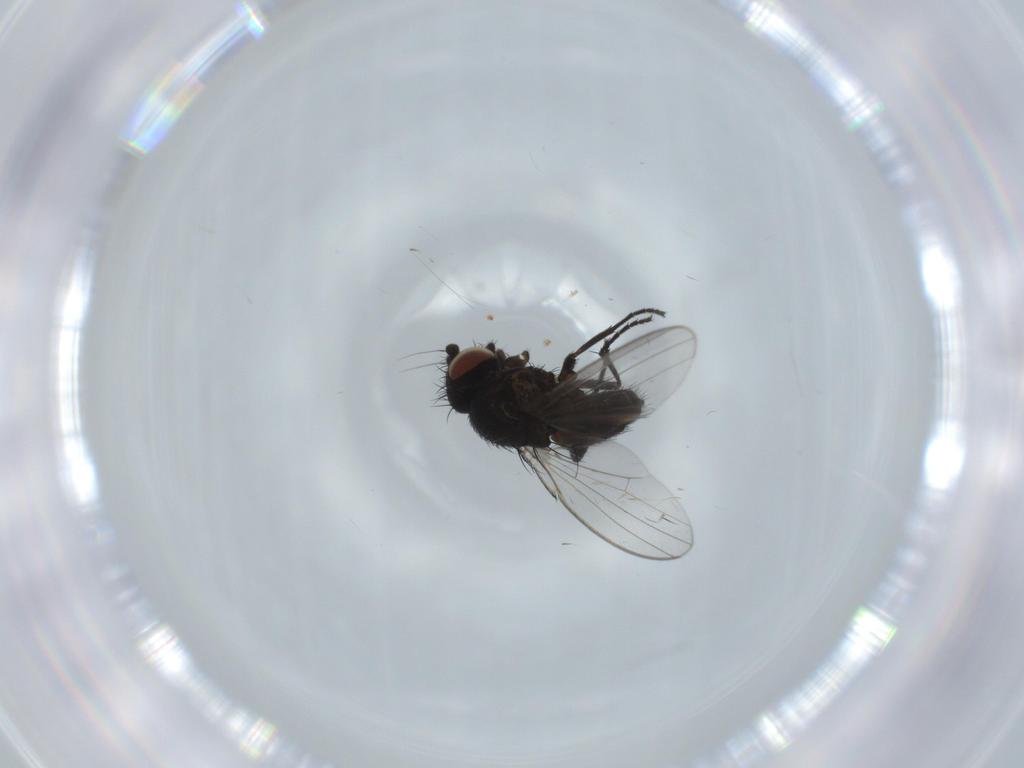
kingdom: Animalia
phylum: Arthropoda
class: Insecta
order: Diptera
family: Milichiidae
